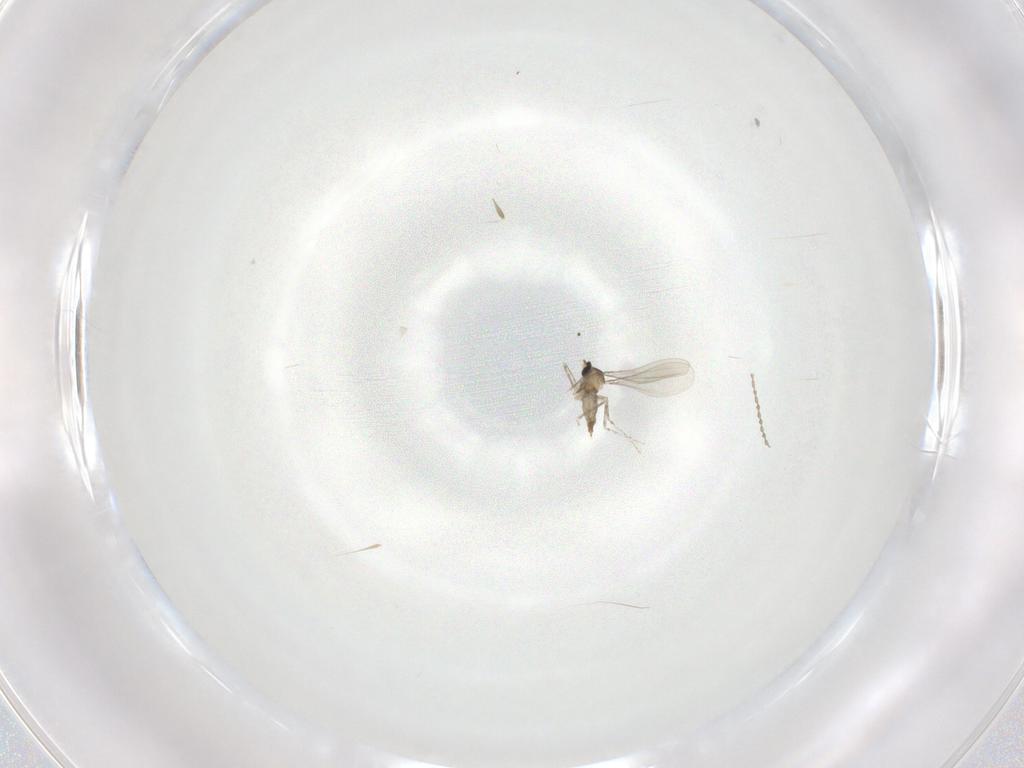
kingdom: Animalia
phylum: Arthropoda
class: Insecta
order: Diptera
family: Cecidomyiidae
